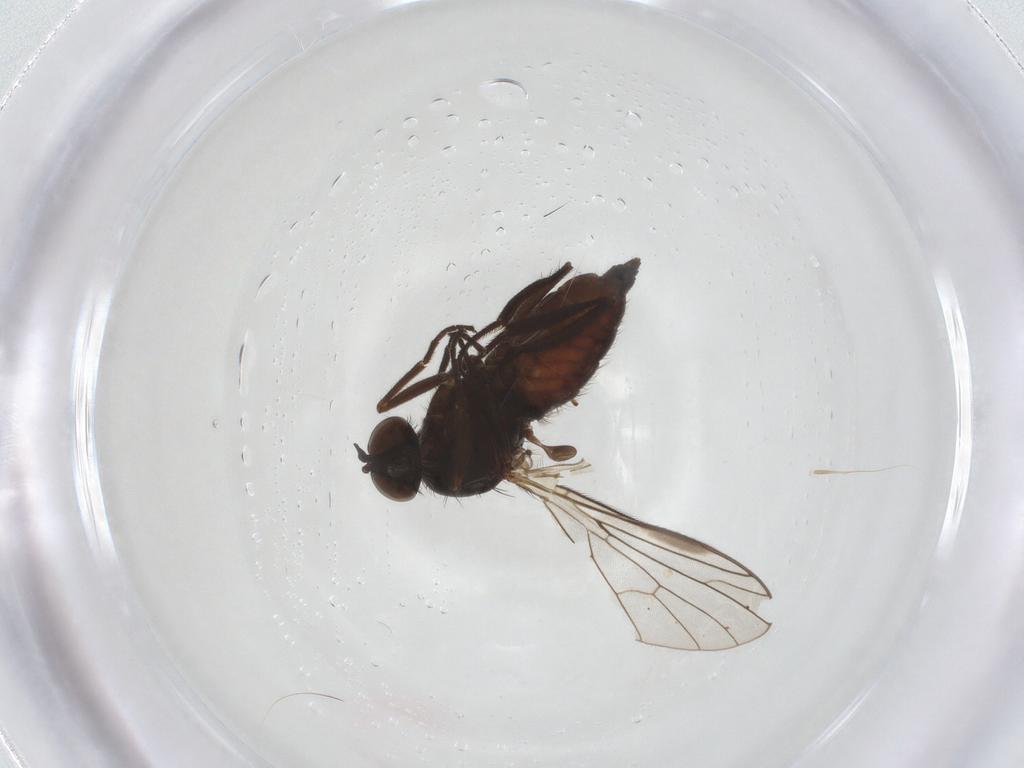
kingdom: Animalia
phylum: Arthropoda
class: Insecta
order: Diptera
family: Empididae
